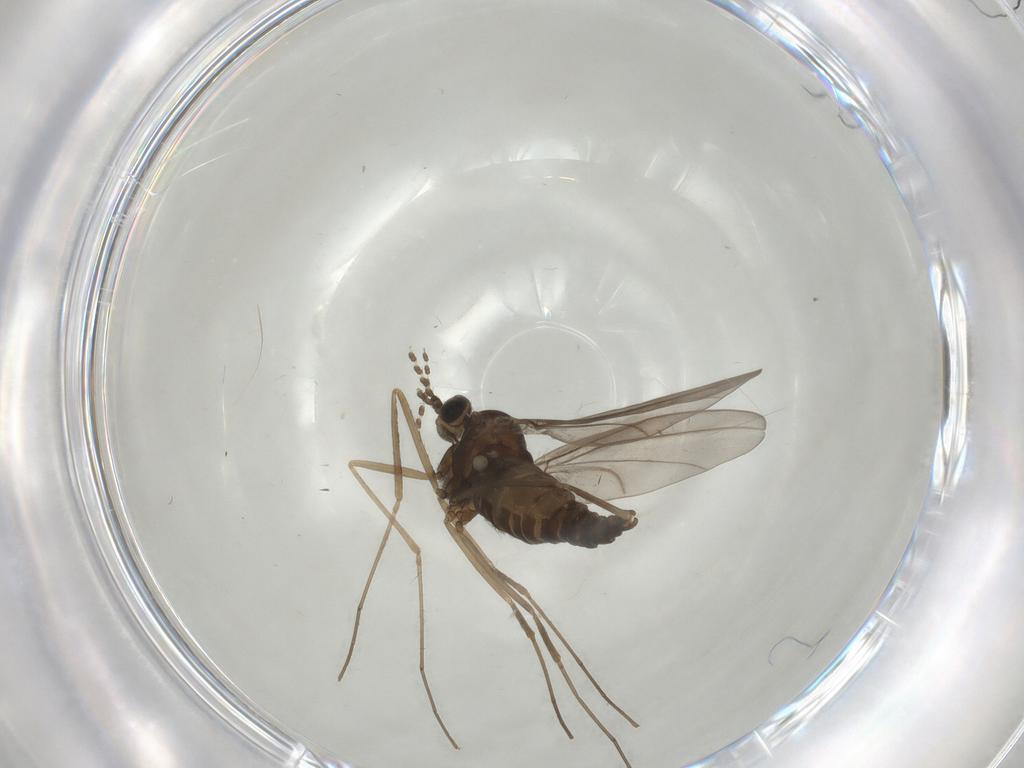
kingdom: Animalia
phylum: Arthropoda
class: Insecta
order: Diptera
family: Cecidomyiidae
